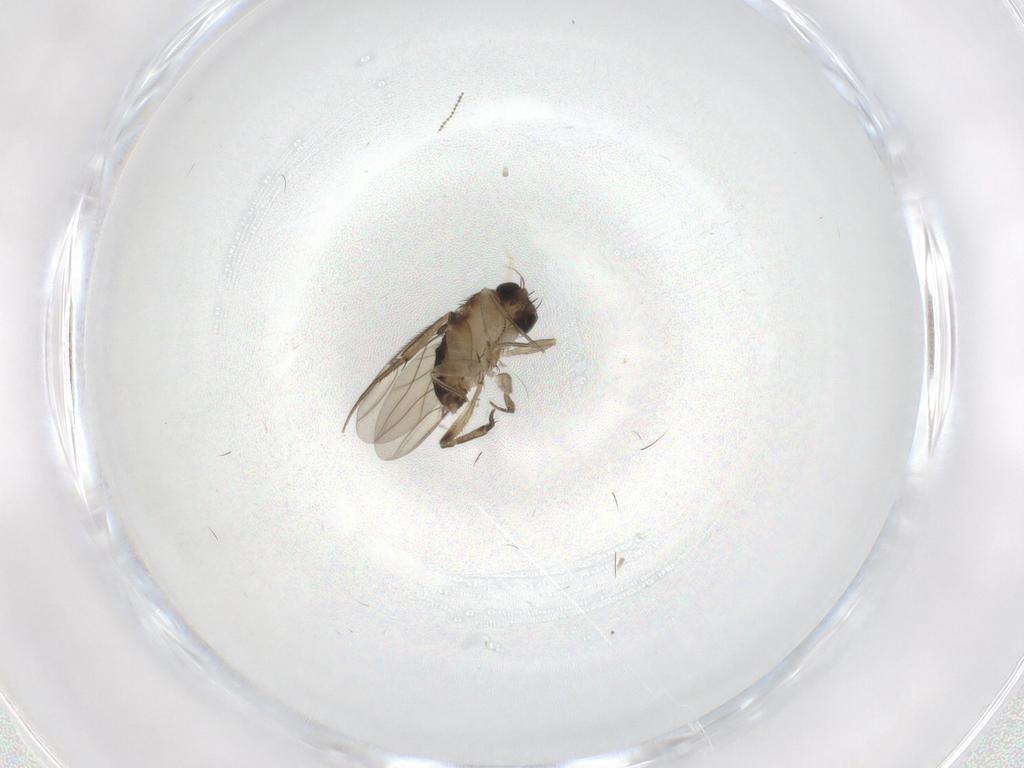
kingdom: Animalia
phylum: Arthropoda
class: Insecta
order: Diptera
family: Phoridae
